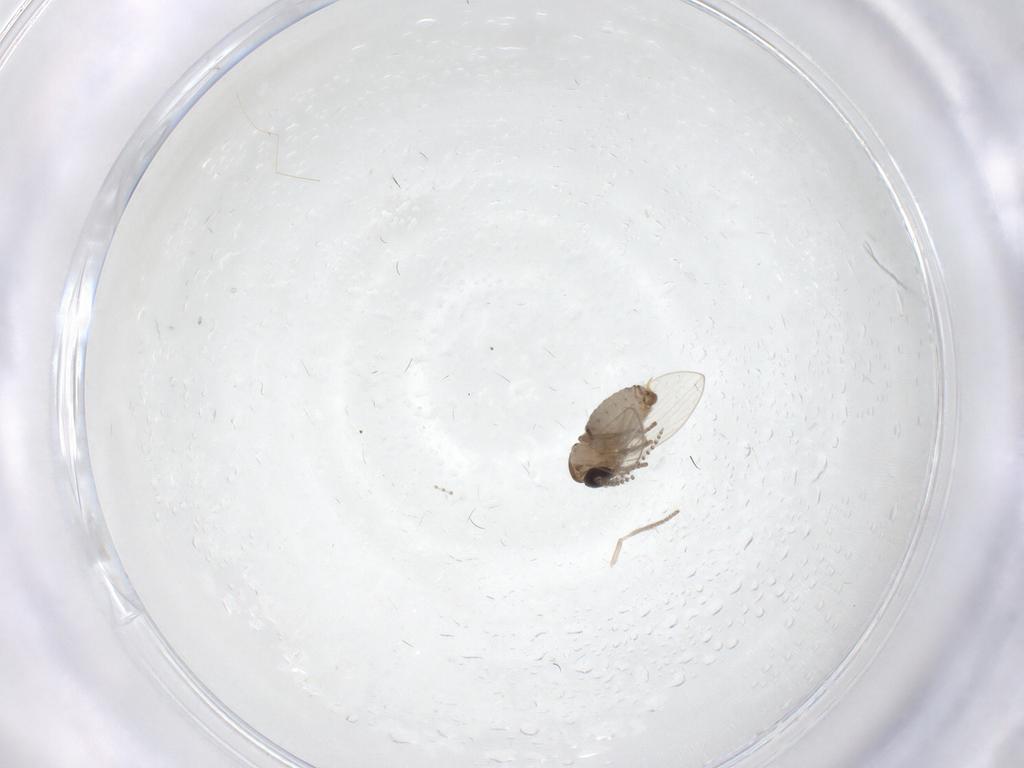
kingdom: Animalia
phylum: Arthropoda
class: Insecta
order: Diptera
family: Psychodidae
